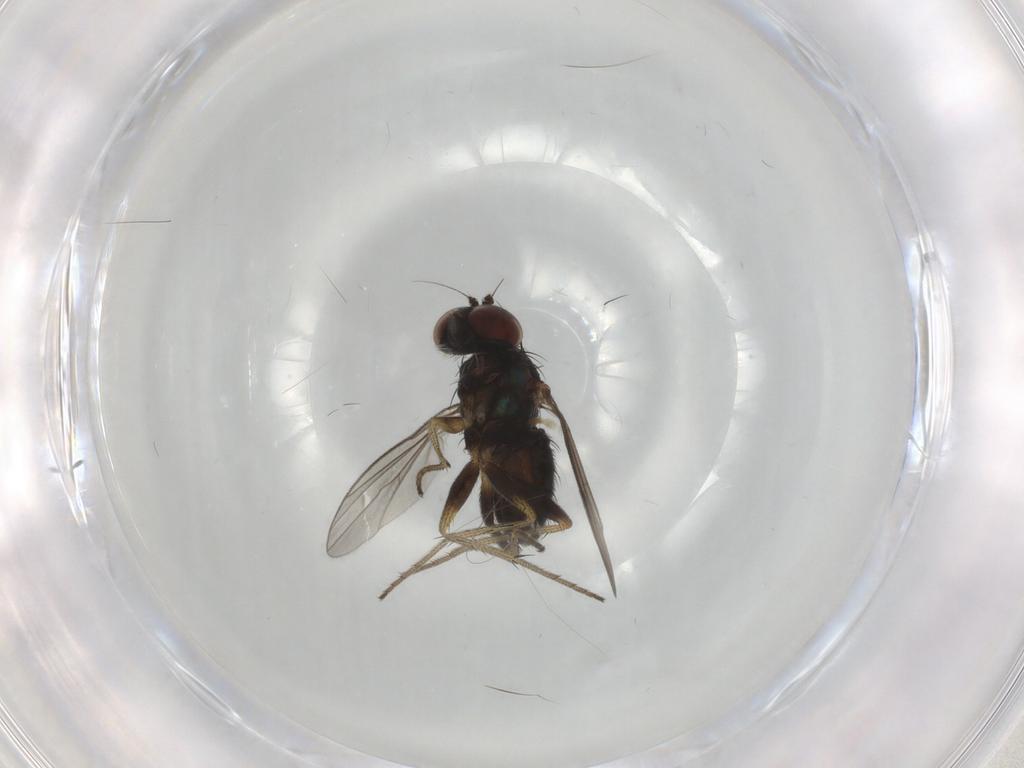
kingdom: Animalia
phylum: Arthropoda
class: Insecta
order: Diptera
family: Dolichopodidae
